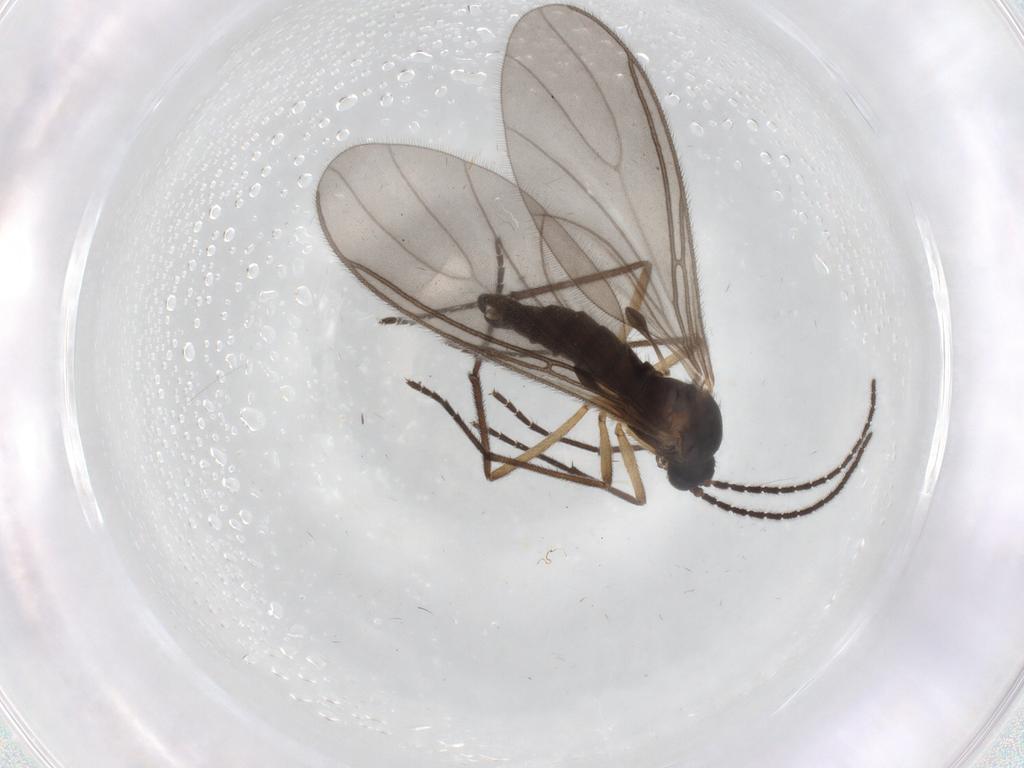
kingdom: Animalia
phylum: Arthropoda
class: Insecta
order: Diptera
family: Sciaridae
